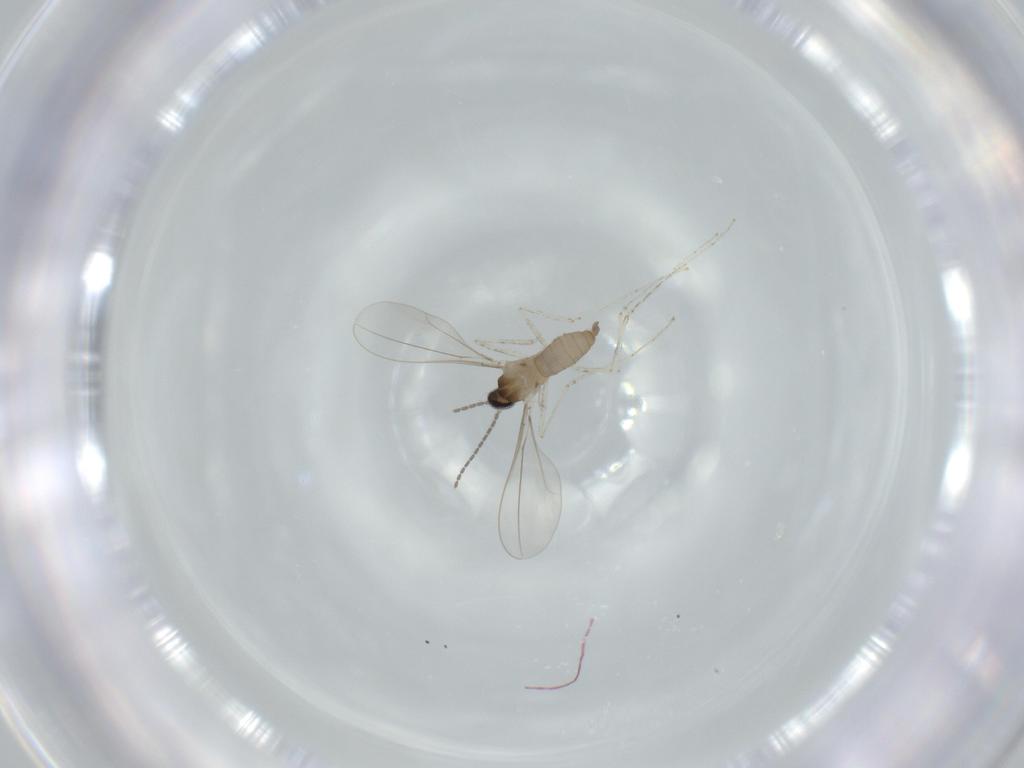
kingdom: Animalia
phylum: Arthropoda
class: Insecta
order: Diptera
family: Cecidomyiidae
